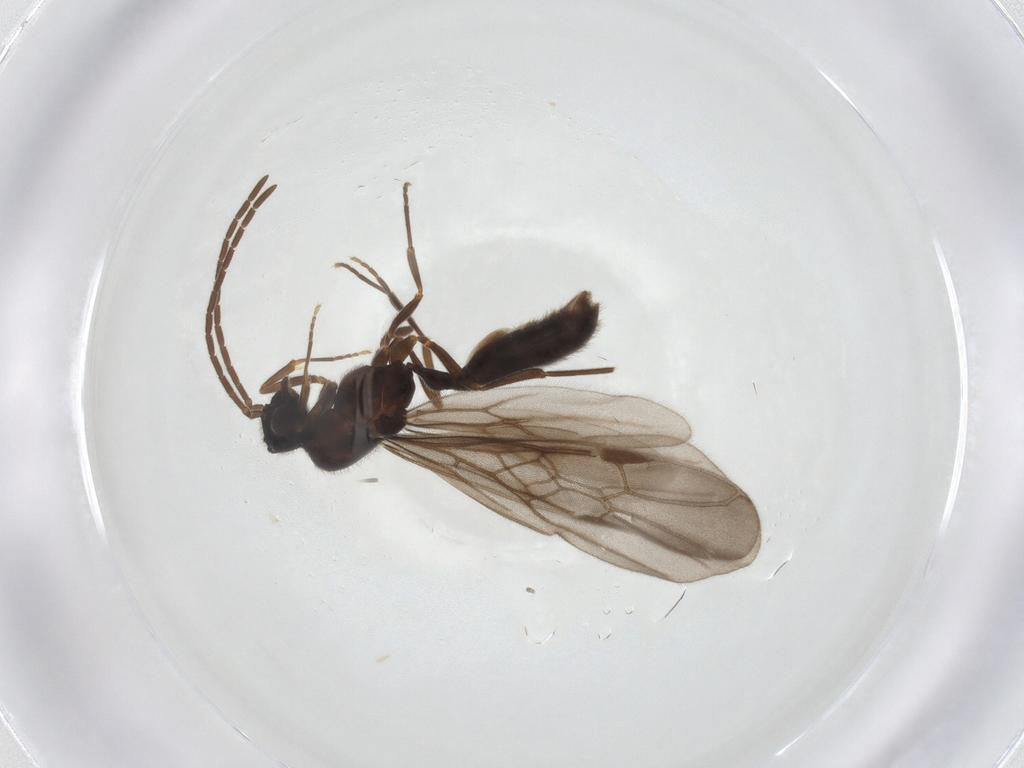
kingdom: Animalia
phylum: Arthropoda
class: Insecta
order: Hymenoptera
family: Formicidae
